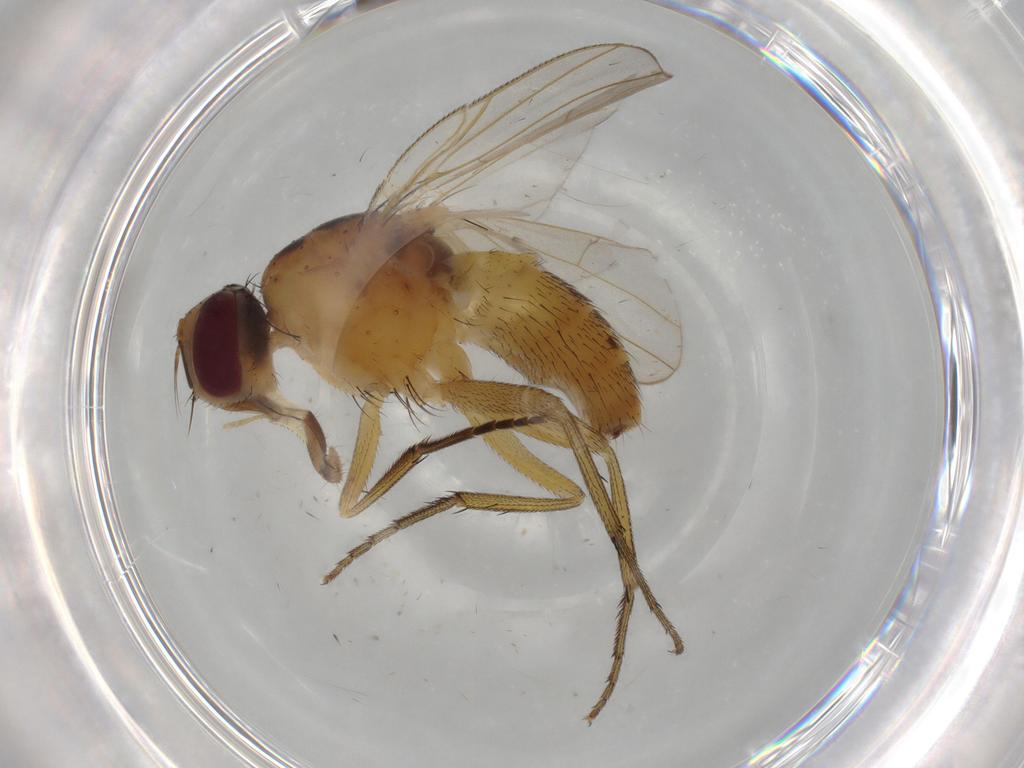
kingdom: Animalia
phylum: Arthropoda
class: Insecta
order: Diptera
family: Muscidae
